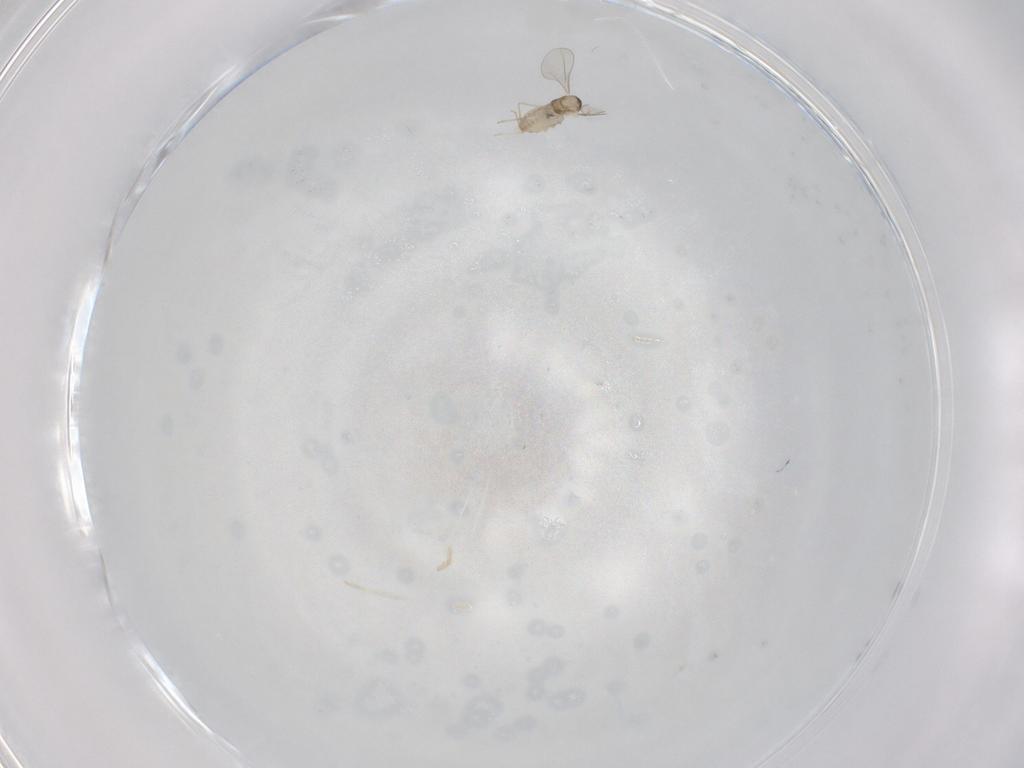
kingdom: Animalia
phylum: Arthropoda
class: Insecta
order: Diptera
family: Cecidomyiidae
